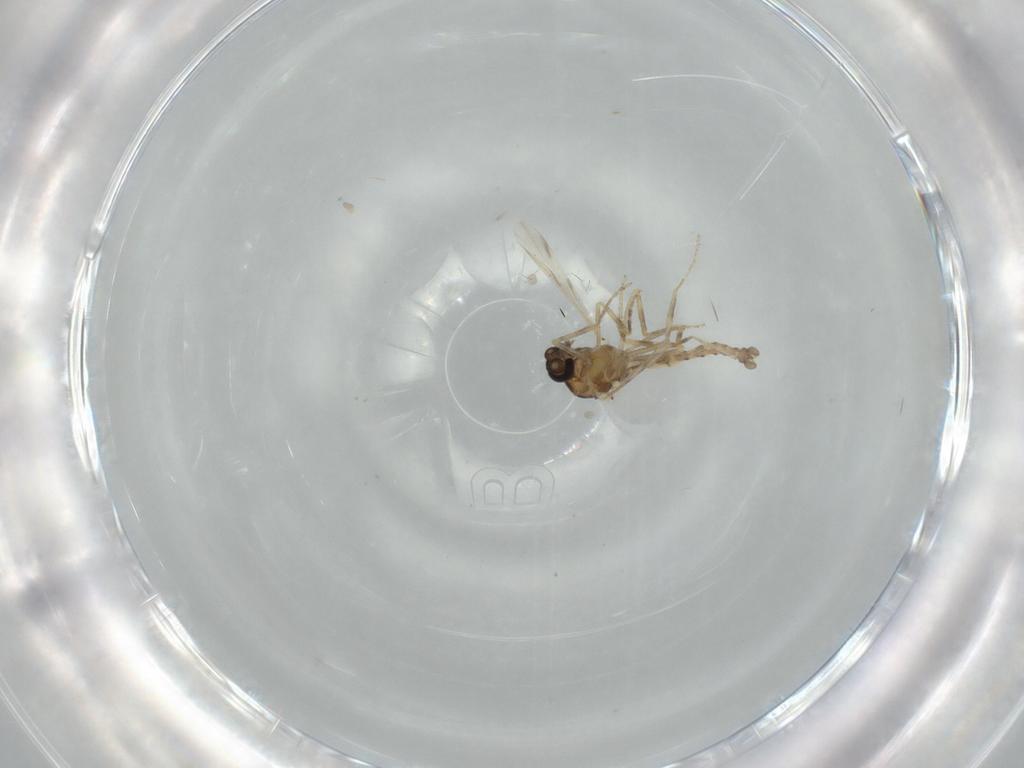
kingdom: Animalia
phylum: Arthropoda
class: Insecta
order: Diptera
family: Ceratopogonidae
